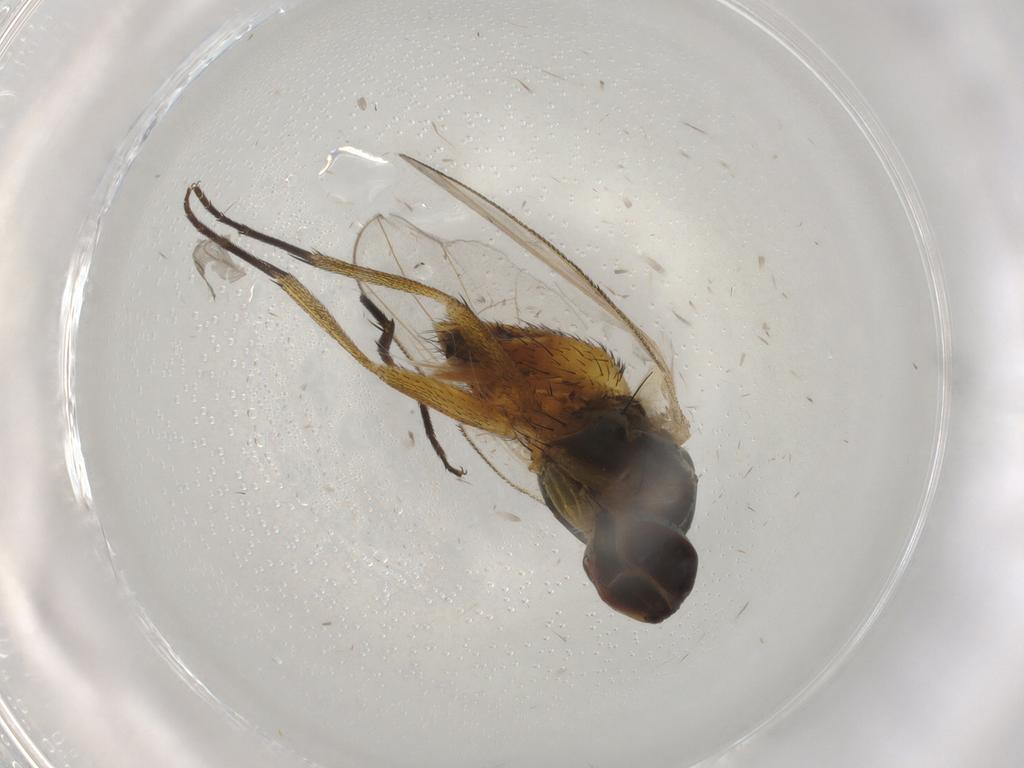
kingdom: Animalia
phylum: Arthropoda
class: Insecta
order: Diptera
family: Muscidae
